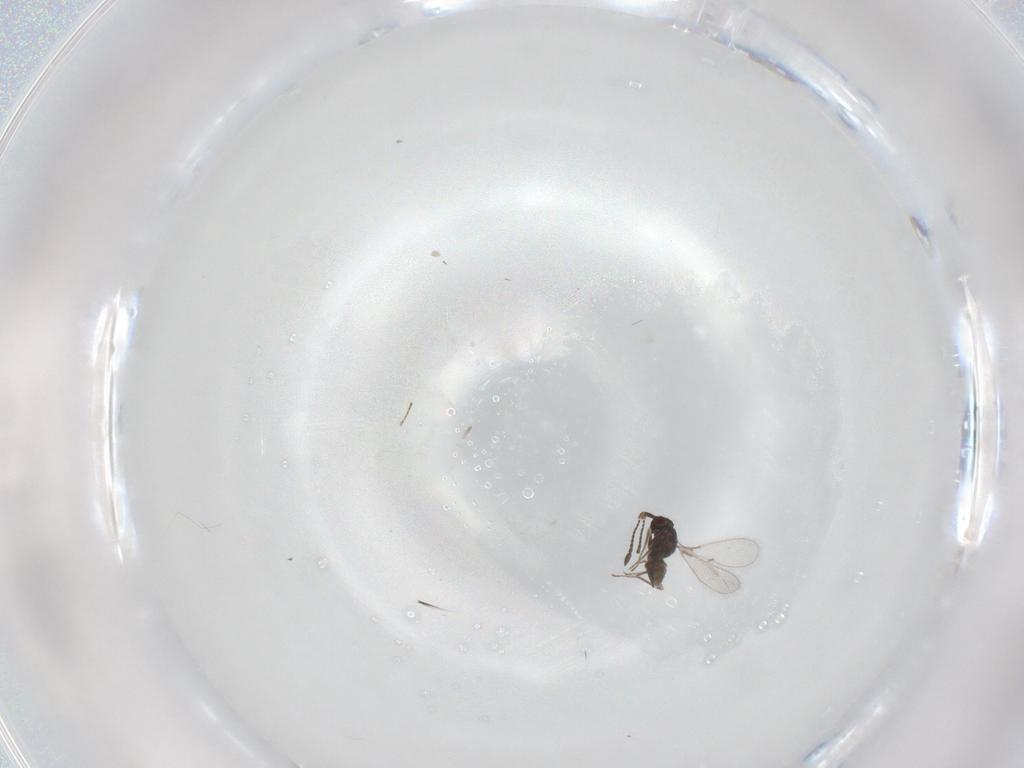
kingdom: Animalia
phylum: Arthropoda
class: Insecta
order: Hymenoptera
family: Mymaridae
